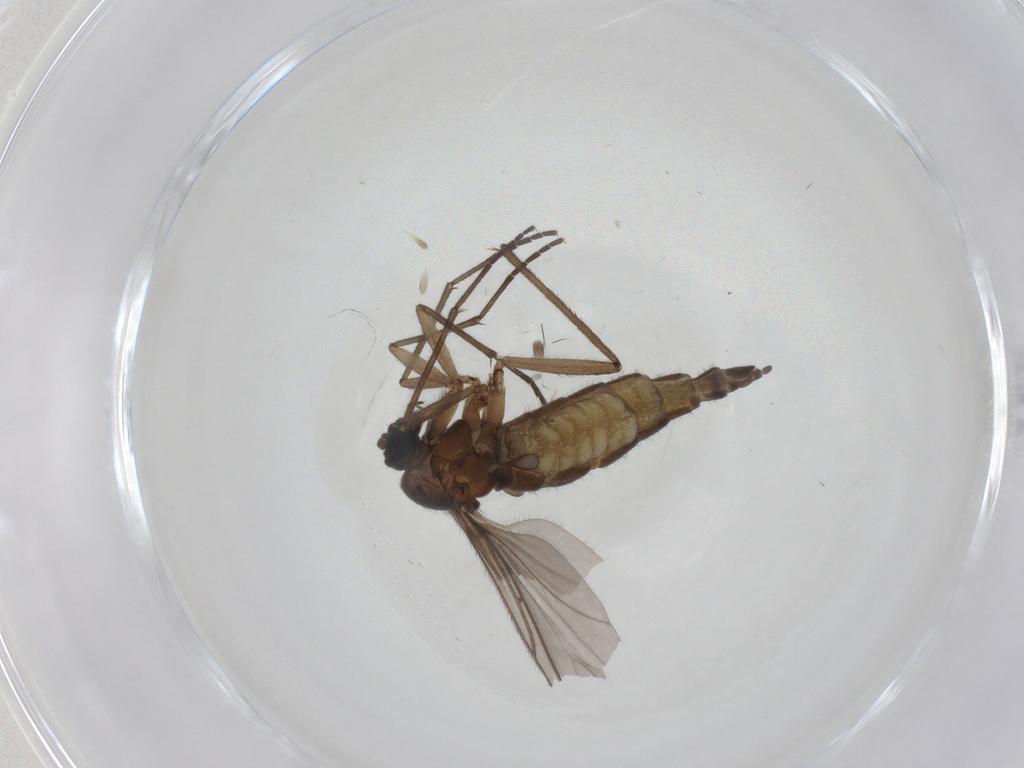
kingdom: Animalia
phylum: Arthropoda
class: Insecta
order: Diptera
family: Sciaridae
